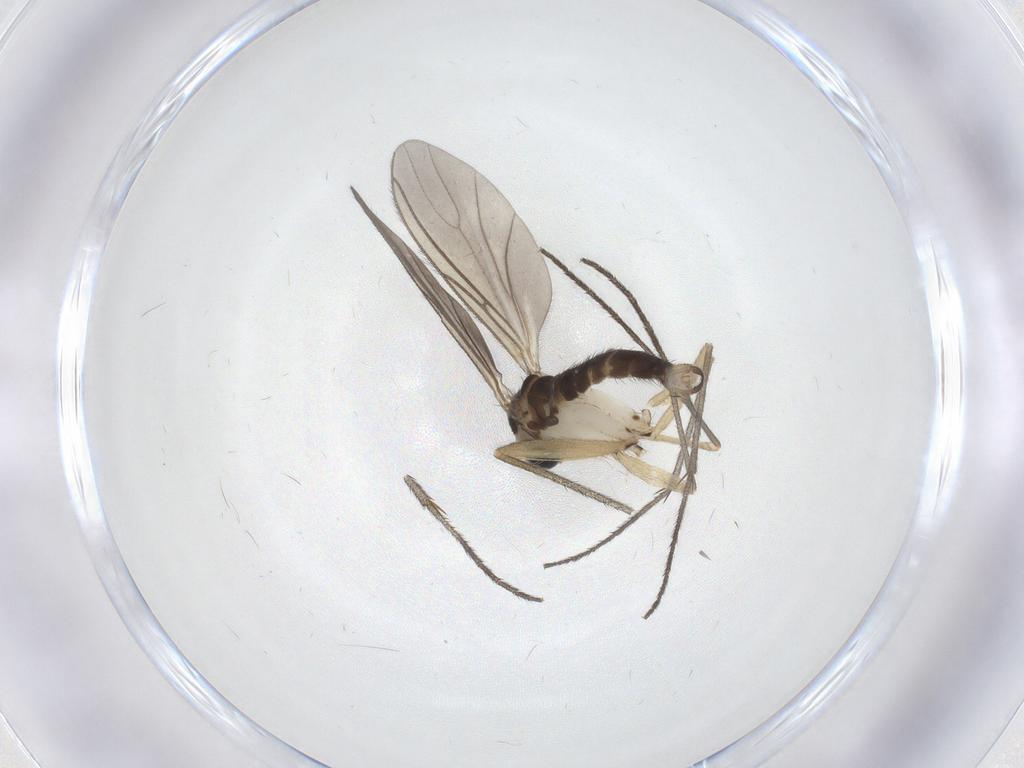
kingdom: Animalia
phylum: Arthropoda
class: Insecta
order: Diptera
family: Sciaridae
